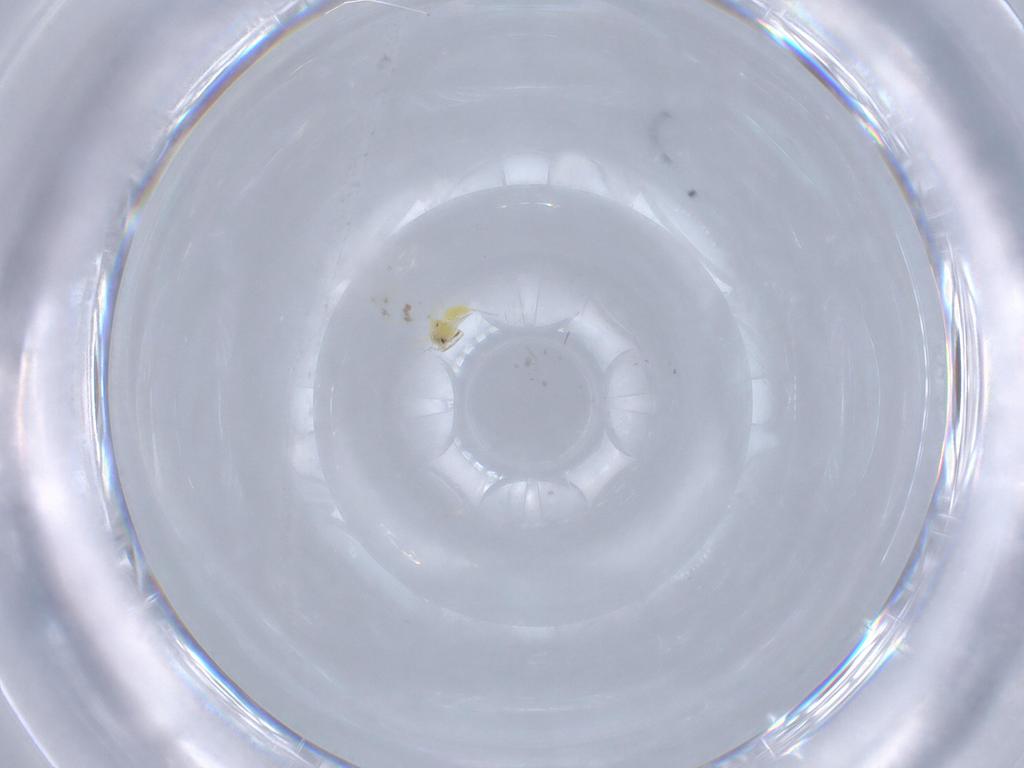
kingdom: Animalia
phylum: Arthropoda
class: Insecta
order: Hemiptera
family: Aleyrodidae
